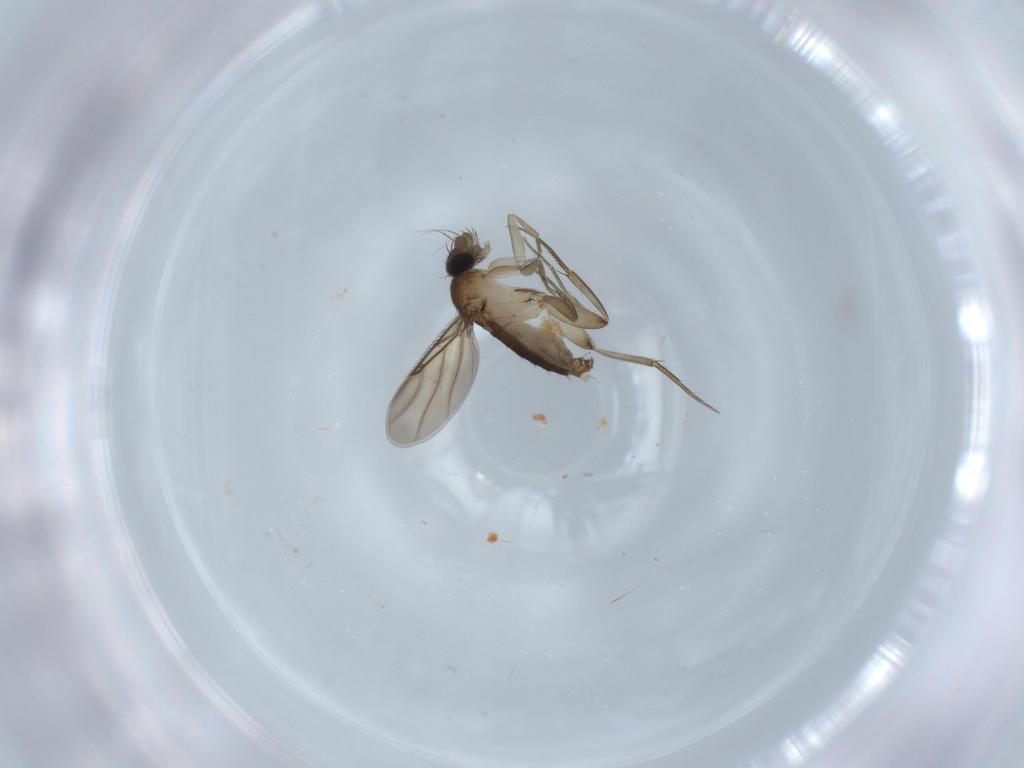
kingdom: Animalia
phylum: Arthropoda
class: Insecta
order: Diptera
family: Phoridae
